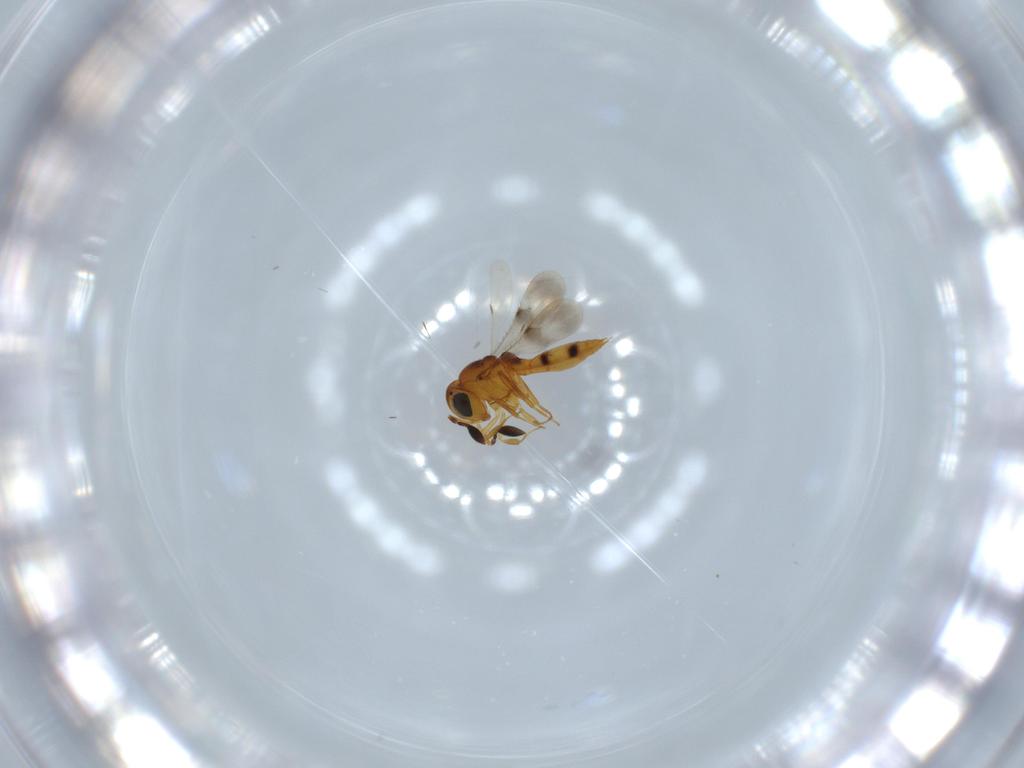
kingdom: Animalia
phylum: Arthropoda
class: Insecta
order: Hymenoptera
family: Scelionidae
